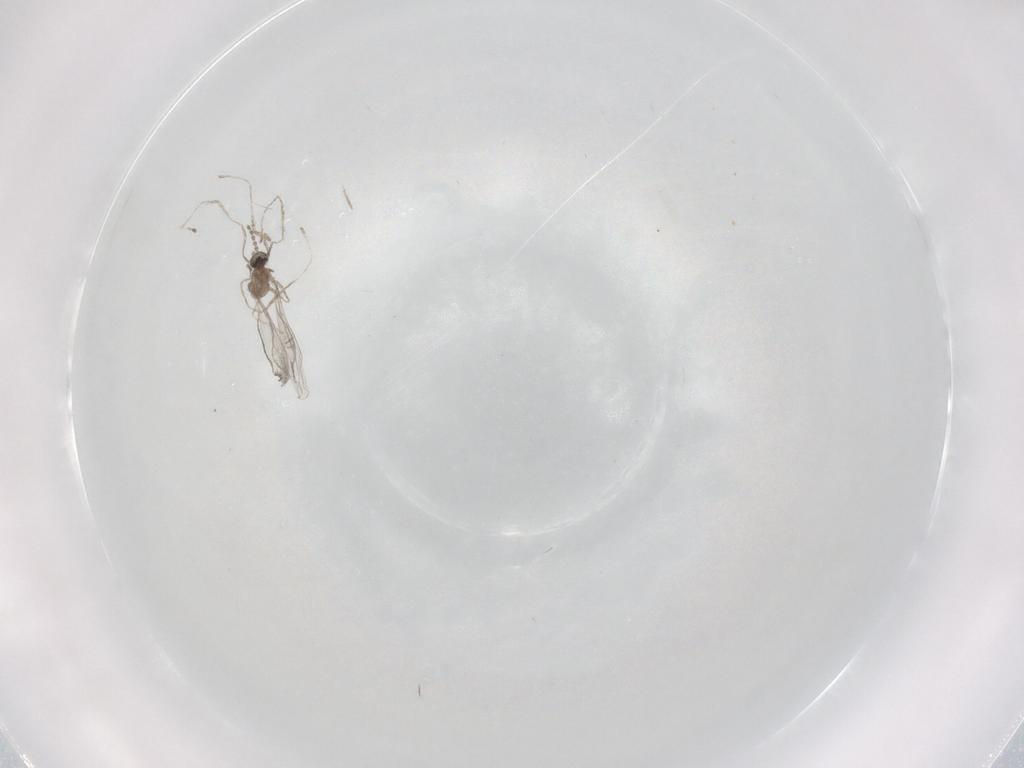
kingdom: Animalia
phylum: Arthropoda
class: Insecta
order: Diptera
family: Cecidomyiidae
